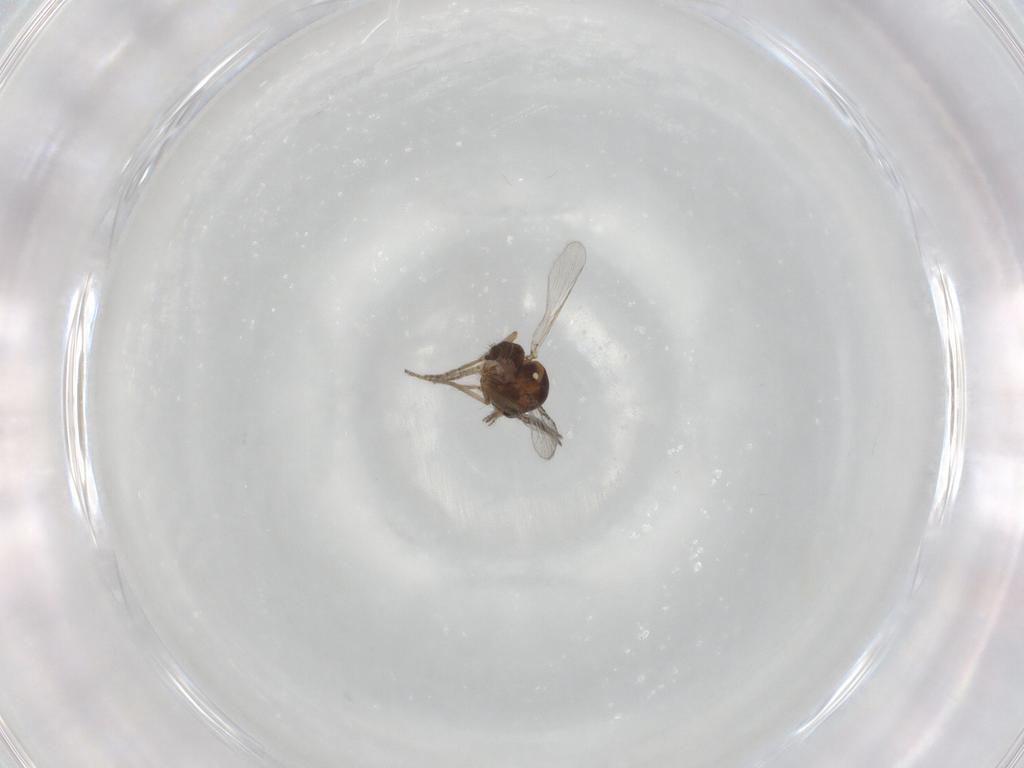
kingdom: Animalia
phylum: Arthropoda
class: Insecta
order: Diptera
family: Ceratopogonidae
